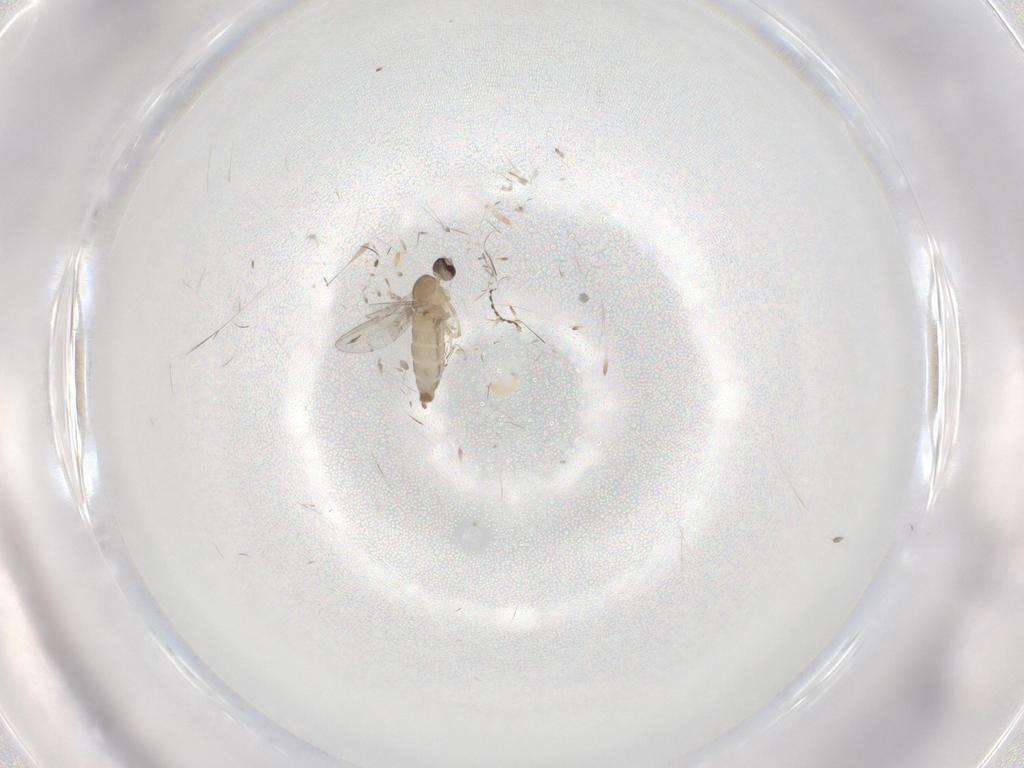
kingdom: Animalia
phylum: Arthropoda
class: Insecta
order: Diptera
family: Cecidomyiidae
